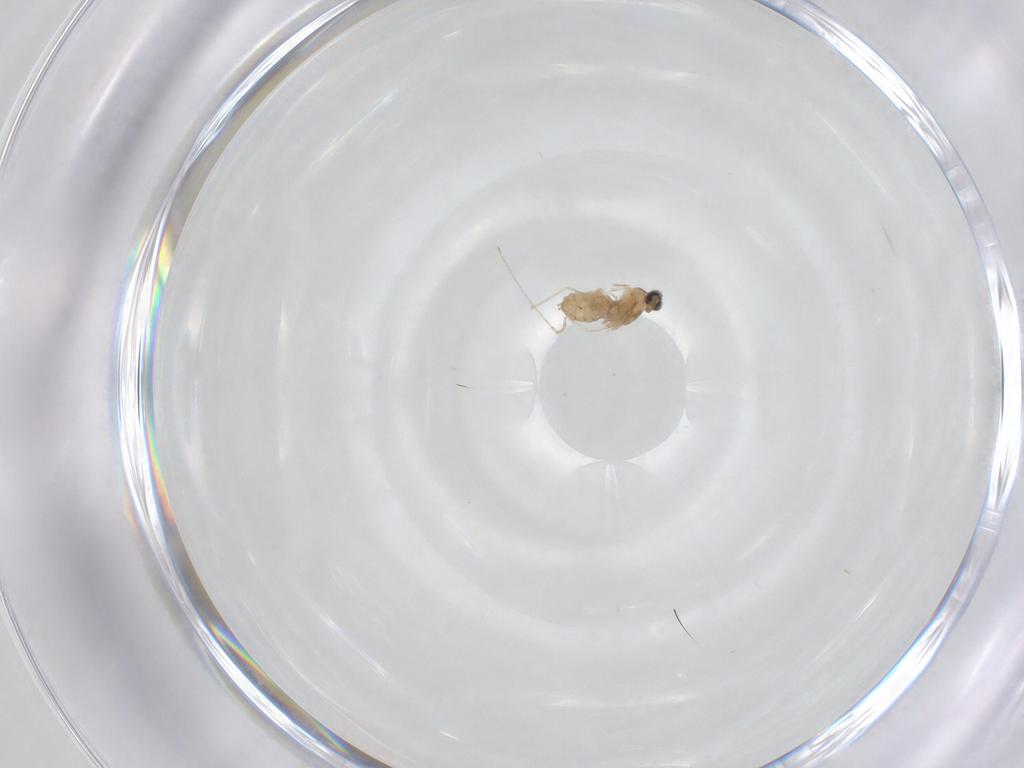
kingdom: Animalia
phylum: Arthropoda
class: Insecta
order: Diptera
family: Cecidomyiidae
